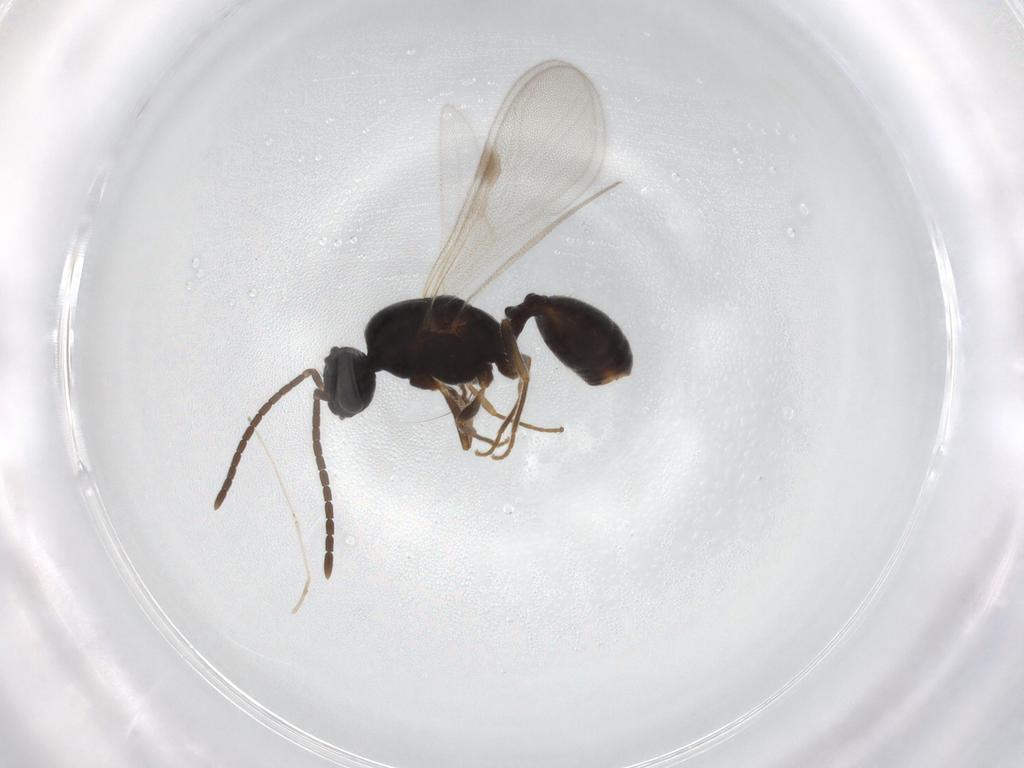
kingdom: Animalia
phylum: Arthropoda
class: Insecta
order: Hymenoptera
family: Formicidae
